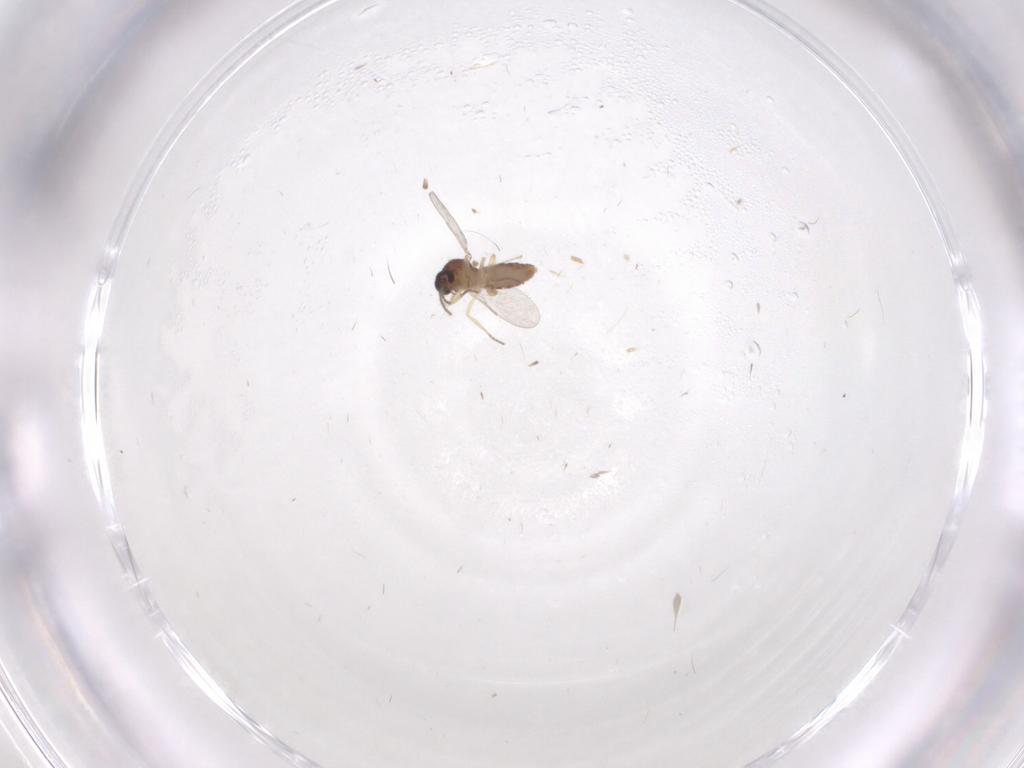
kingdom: Animalia
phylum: Arthropoda
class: Insecta
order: Diptera
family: Ceratopogonidae
